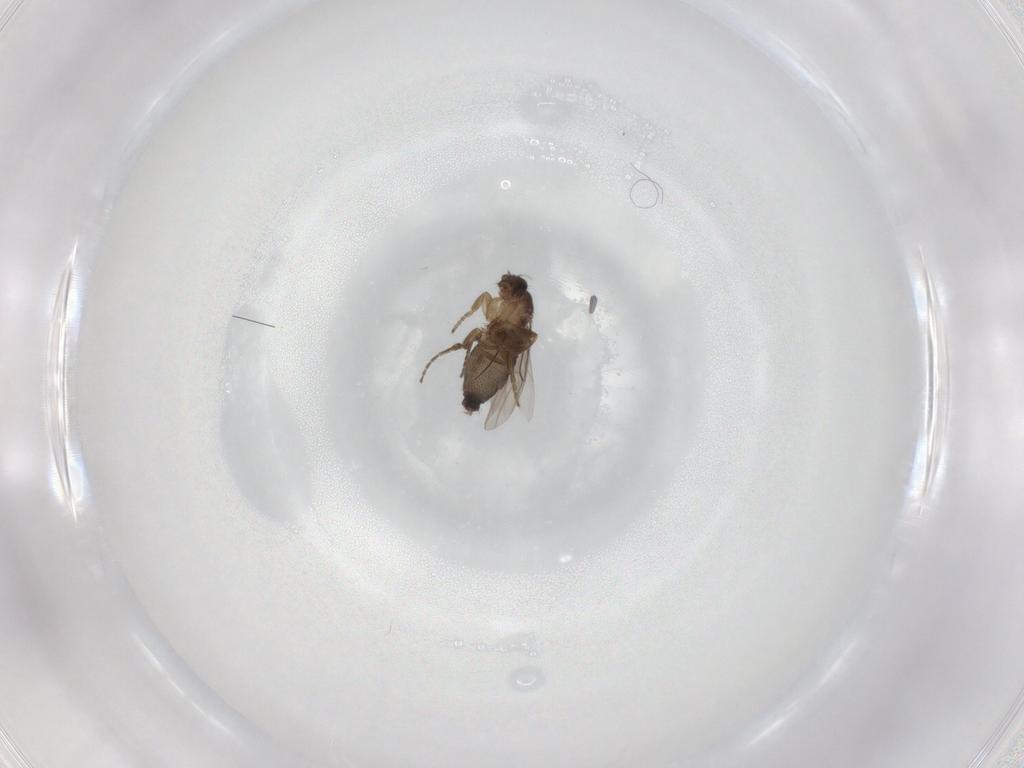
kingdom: Animalia
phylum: Arthropoda
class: Insecta
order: Diptera
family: Phoridae
